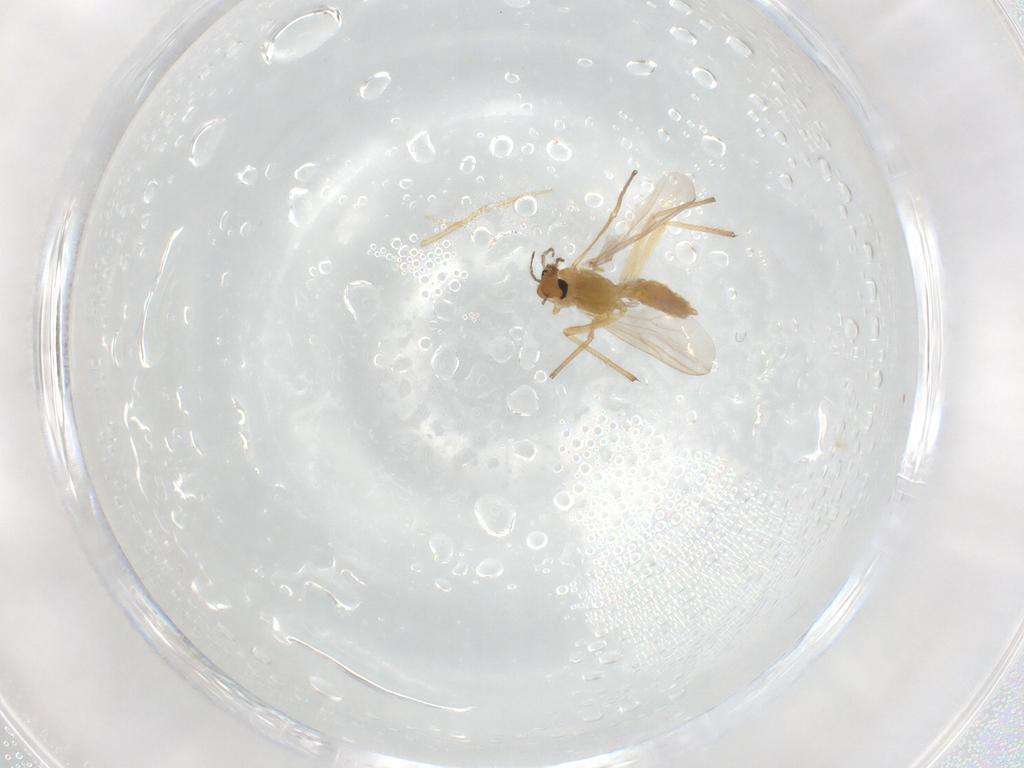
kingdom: Animalia
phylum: Arthropoda
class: Insecta
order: Diptera
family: Chironomidae
